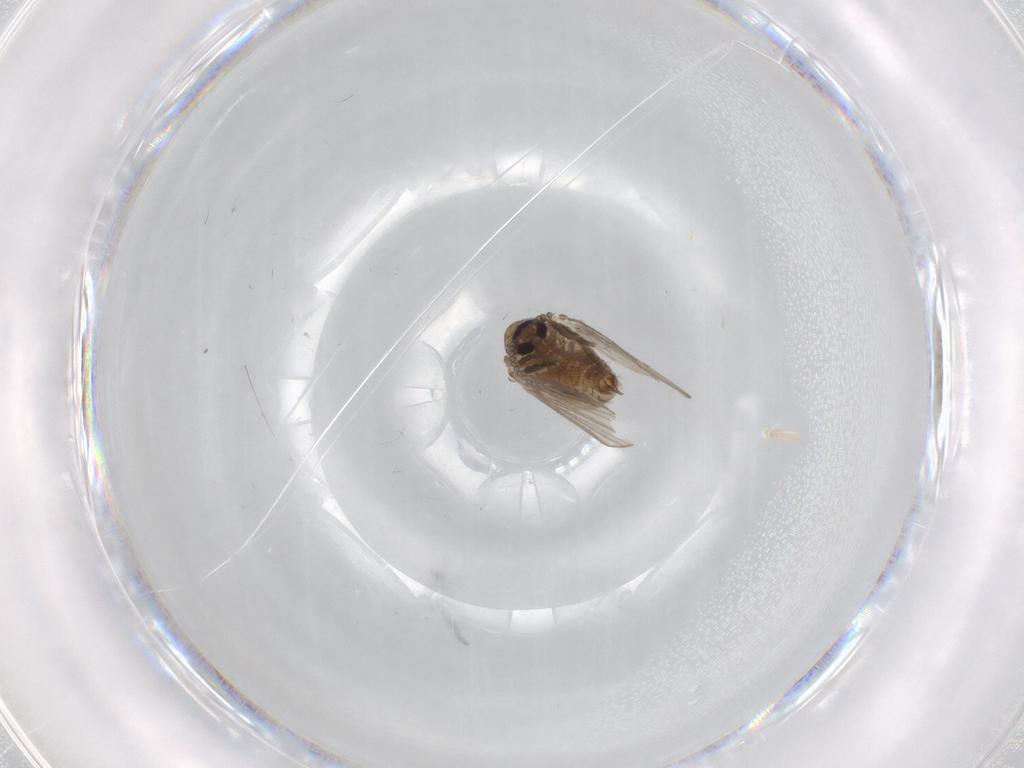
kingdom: Animalia
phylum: Arthropoda
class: Insecta
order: Diptera
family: Psychodidae
